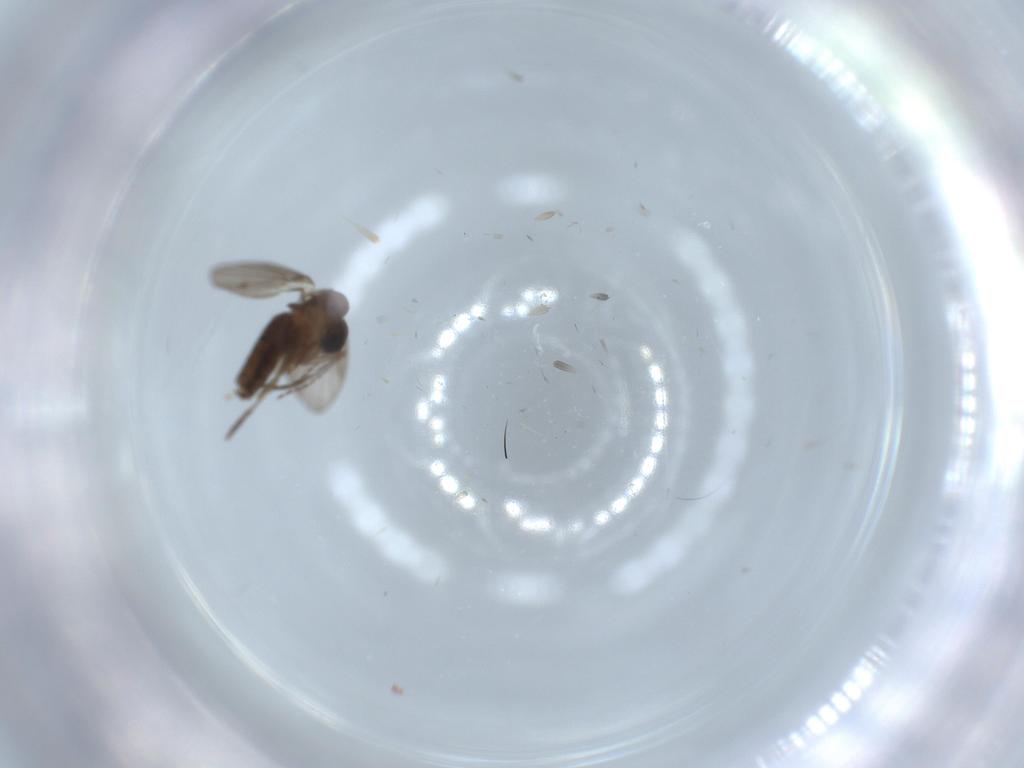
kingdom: Animalia
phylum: Arthropoda
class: Insecta
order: Diptera
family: Psychodidae
